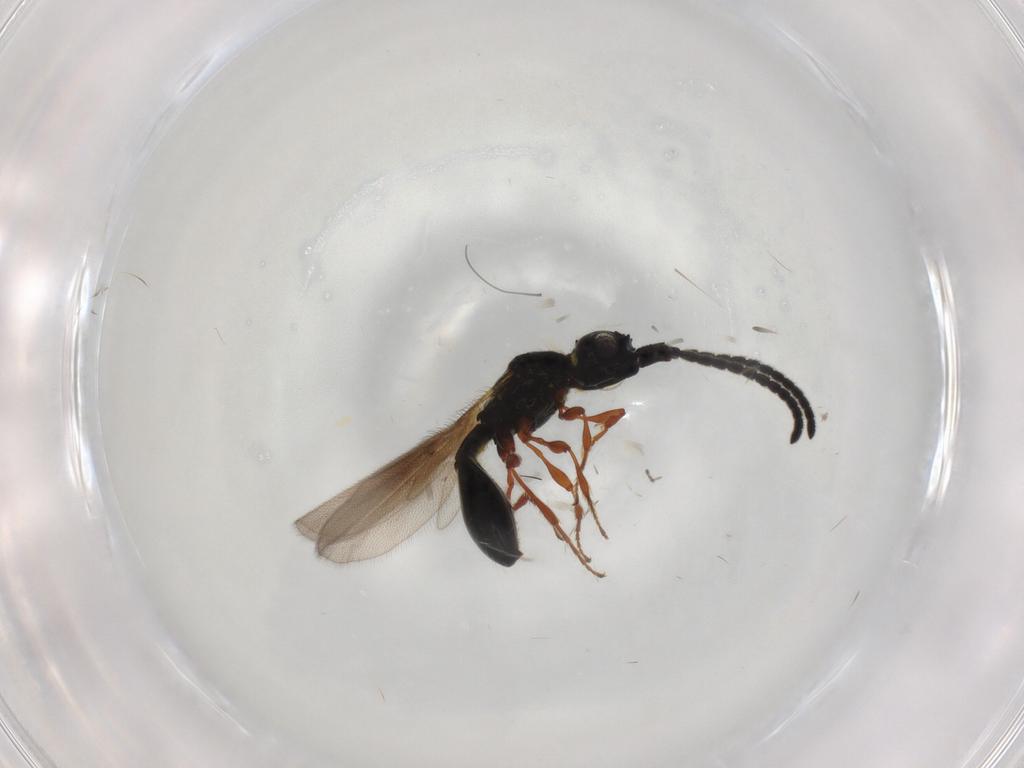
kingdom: Animalia
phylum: Arthropoda
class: Insecta
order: Hymenoptera
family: Diapriidae
